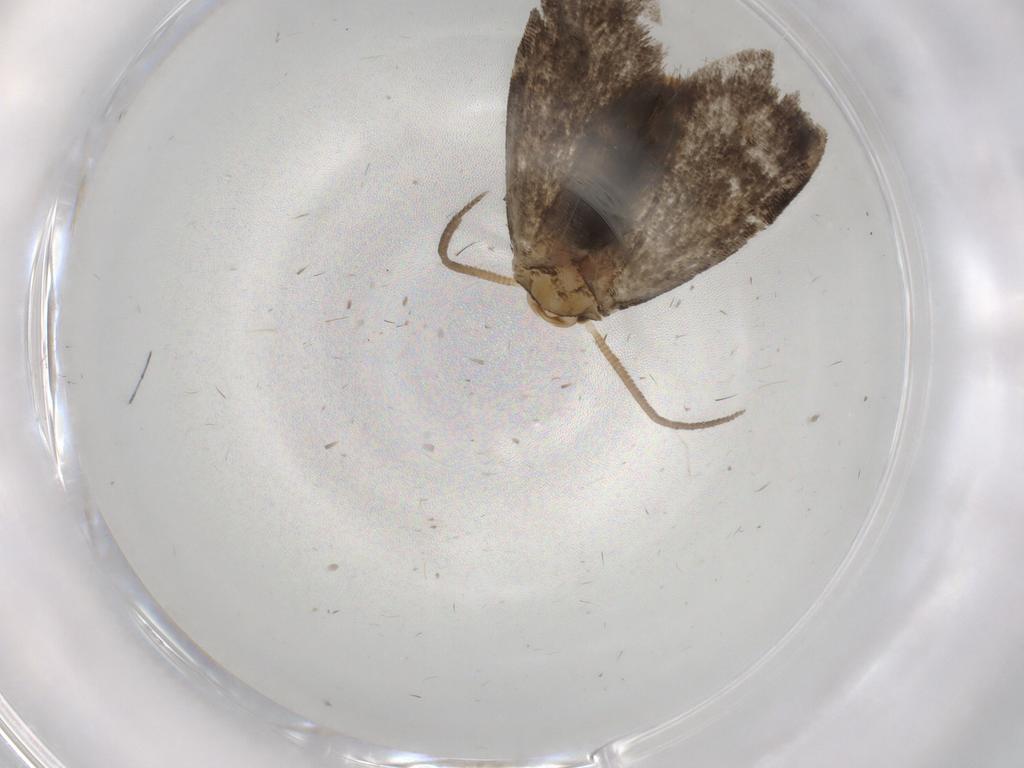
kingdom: Animalia
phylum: Arthropoda
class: Insecta
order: Lepidoptera
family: Dryadaulidae
